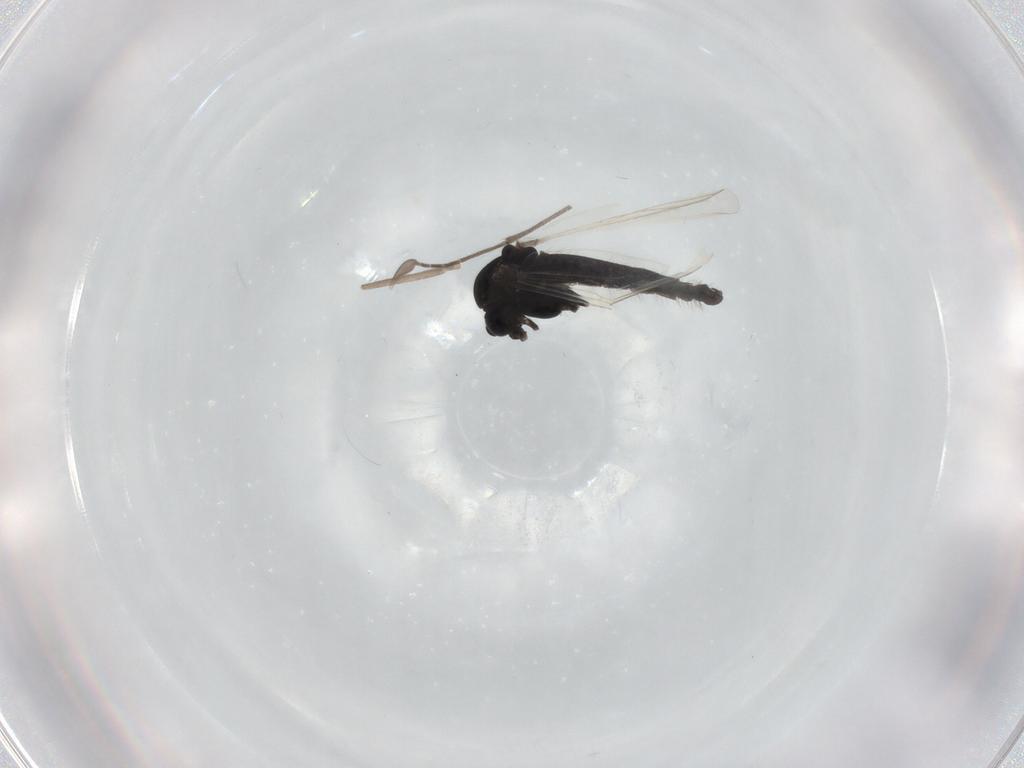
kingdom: Animalia
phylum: Arthropoda
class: Insecta
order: Diptera
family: Cecidomyiidae
